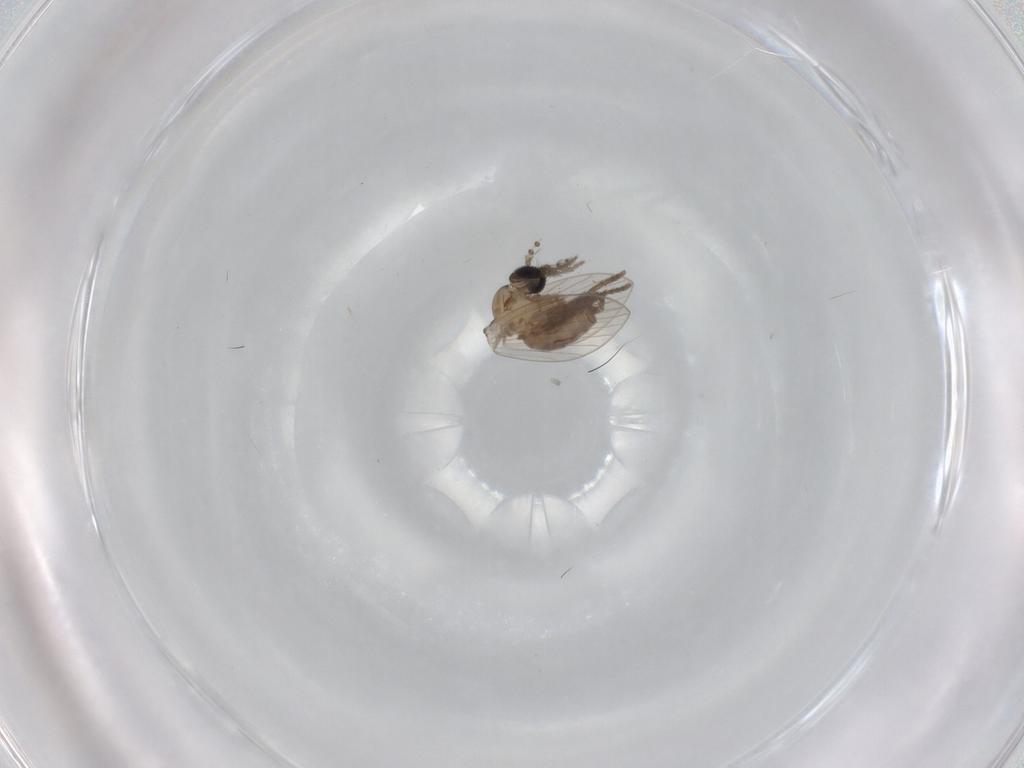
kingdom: Animalia
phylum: Arthropoda
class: Insecta
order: Diptera
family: Psychodidae
